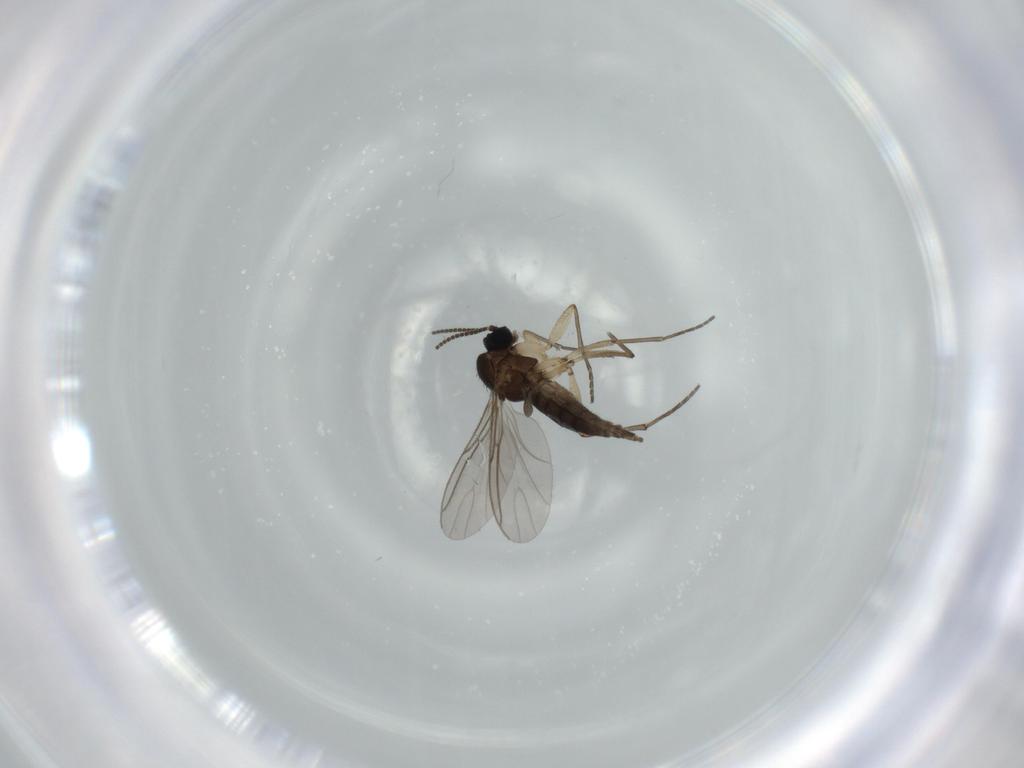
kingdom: Animalia
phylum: Arthropoda
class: Insecta
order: Diptera
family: Sciaridae
